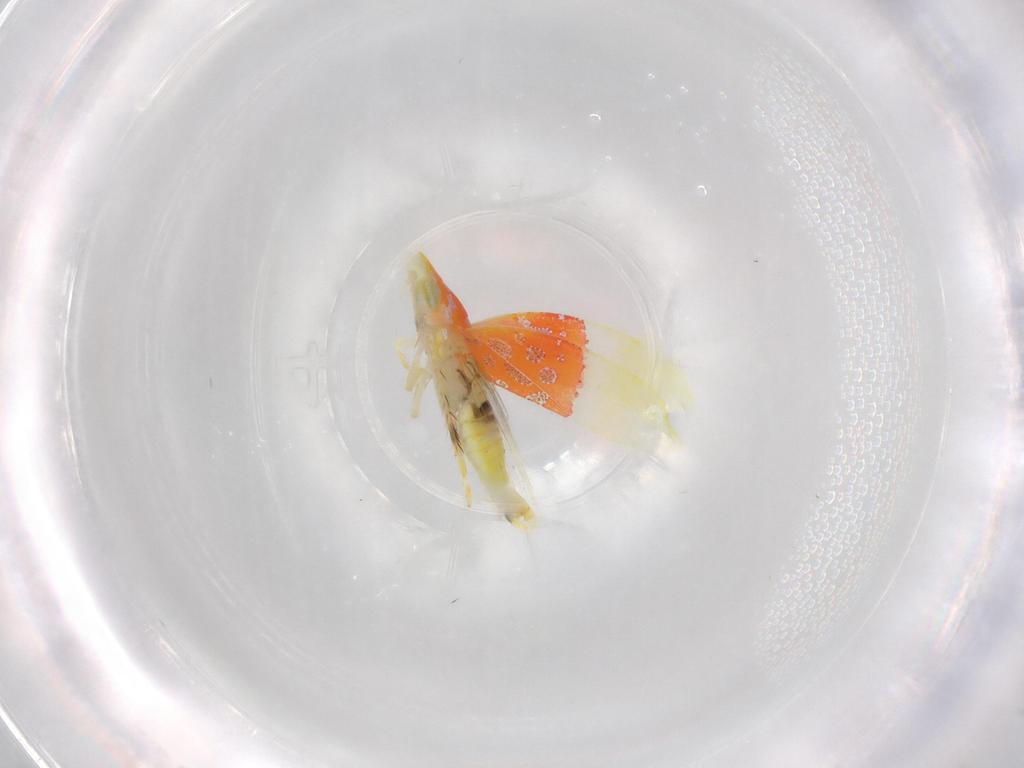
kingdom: Animalia
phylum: Arthropoda
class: Insecta
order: Hemiptera
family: Cicadellidae
